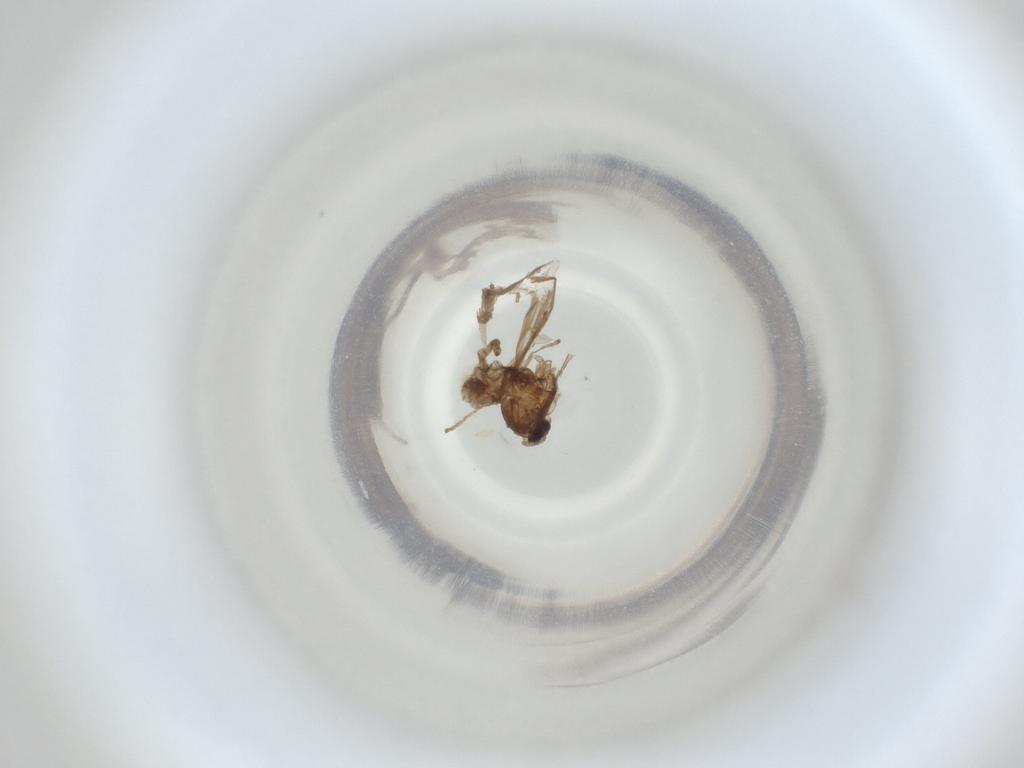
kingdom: Animalia
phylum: Arthropoda
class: Insecta
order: Diptera
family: Cecidomyiidae
